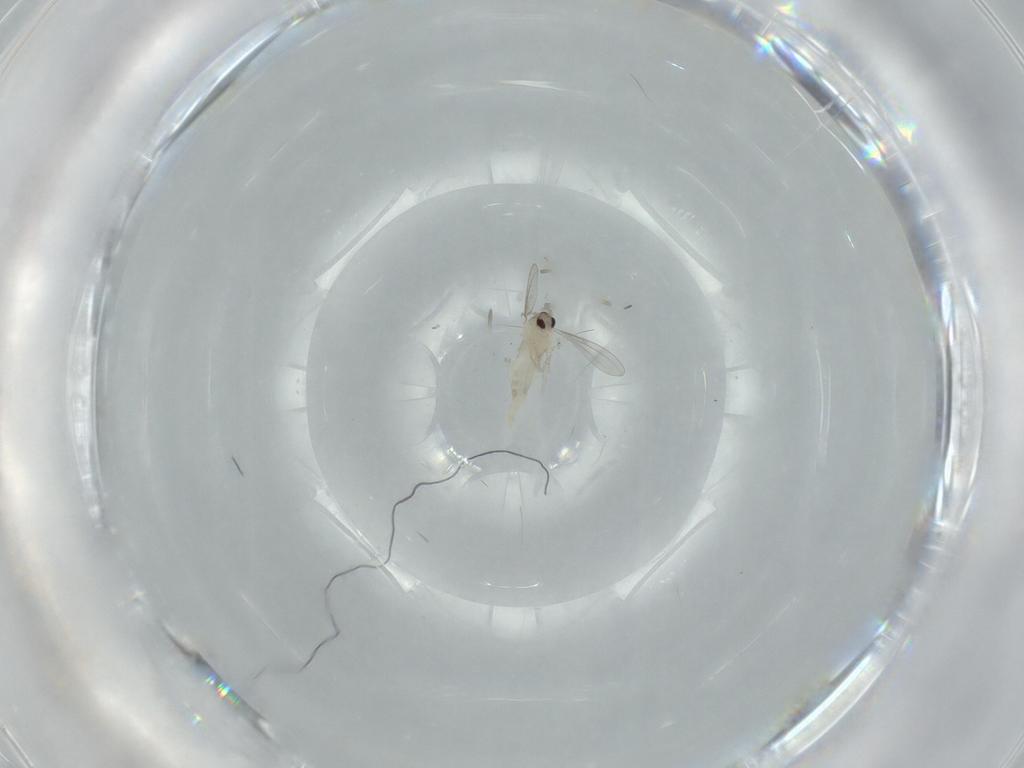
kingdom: Animalia
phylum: Arthropoda
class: Insecta
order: Diptera
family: Cecidomyiidae
